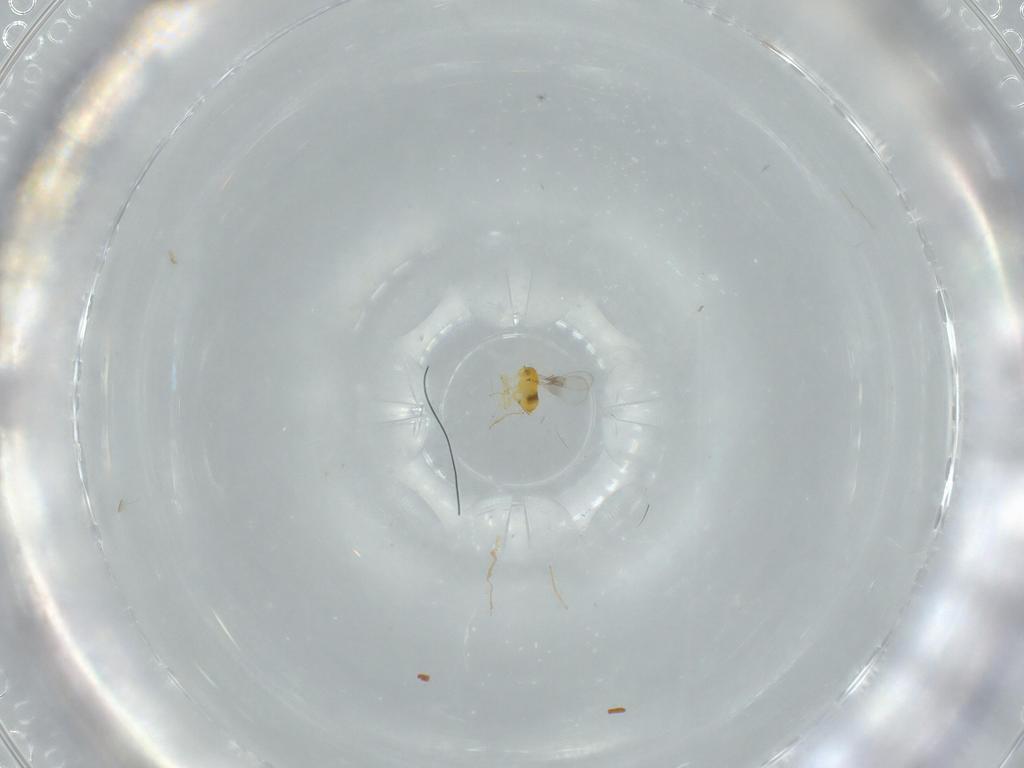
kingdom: Animalia
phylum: Arthropoda
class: Insecta
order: Hymenoptera
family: Trichogrammatidae
